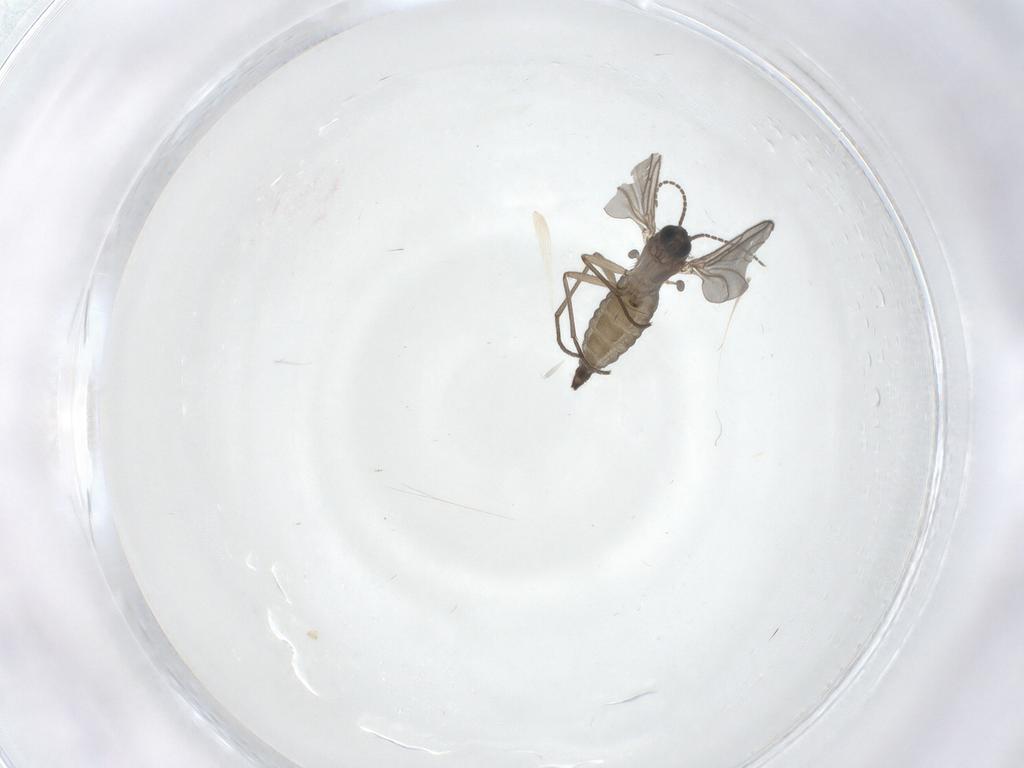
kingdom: Animalia
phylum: Arthropoda
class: Insecta
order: Diptera
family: Sciaridae
